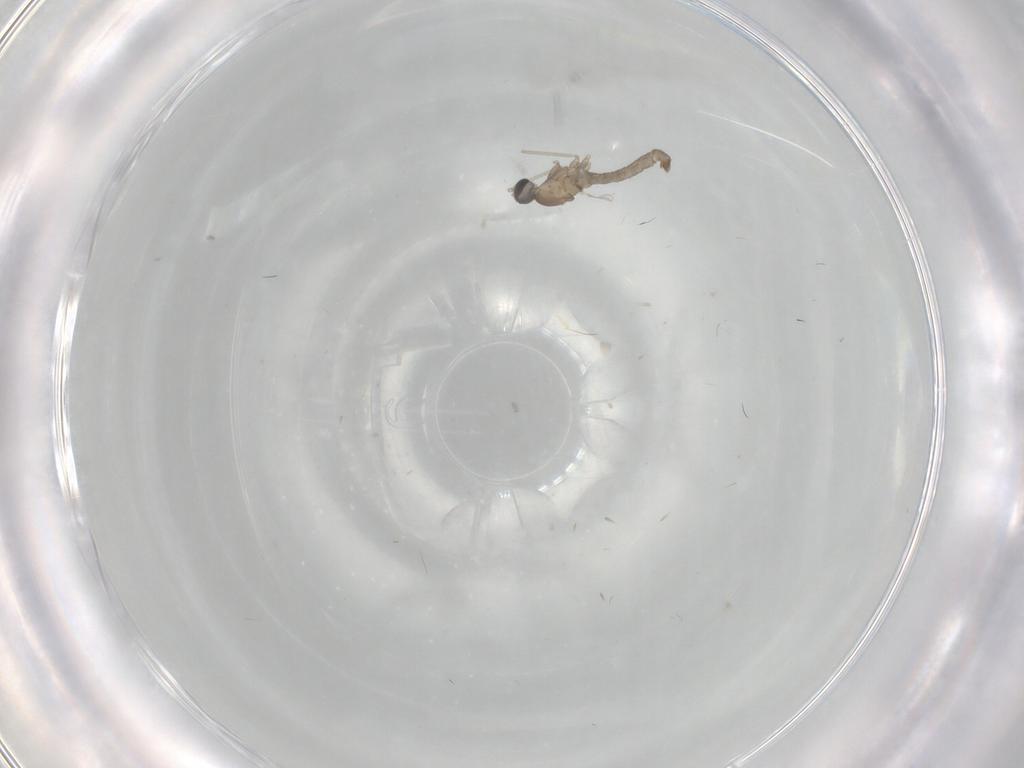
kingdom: Animalia
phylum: Arthropoda
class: Insecta
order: Diptera
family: Cecidomyiidae
